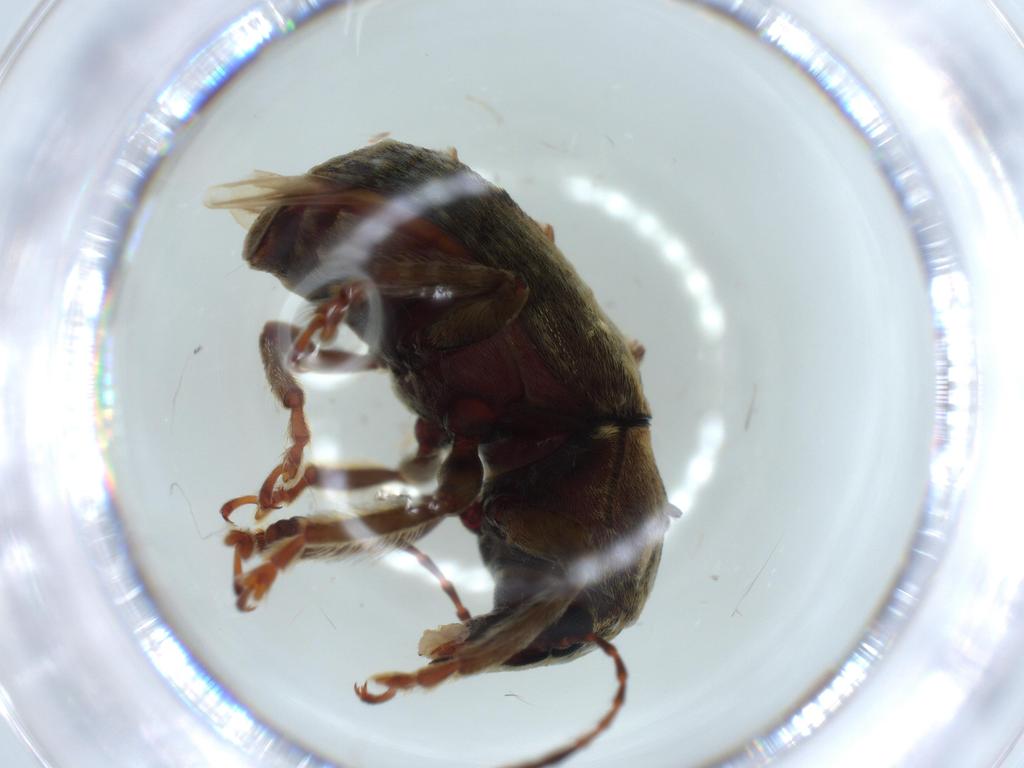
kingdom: Animalia
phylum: Arthropoda
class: Insecta
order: Coleoptera
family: Anthribidae
